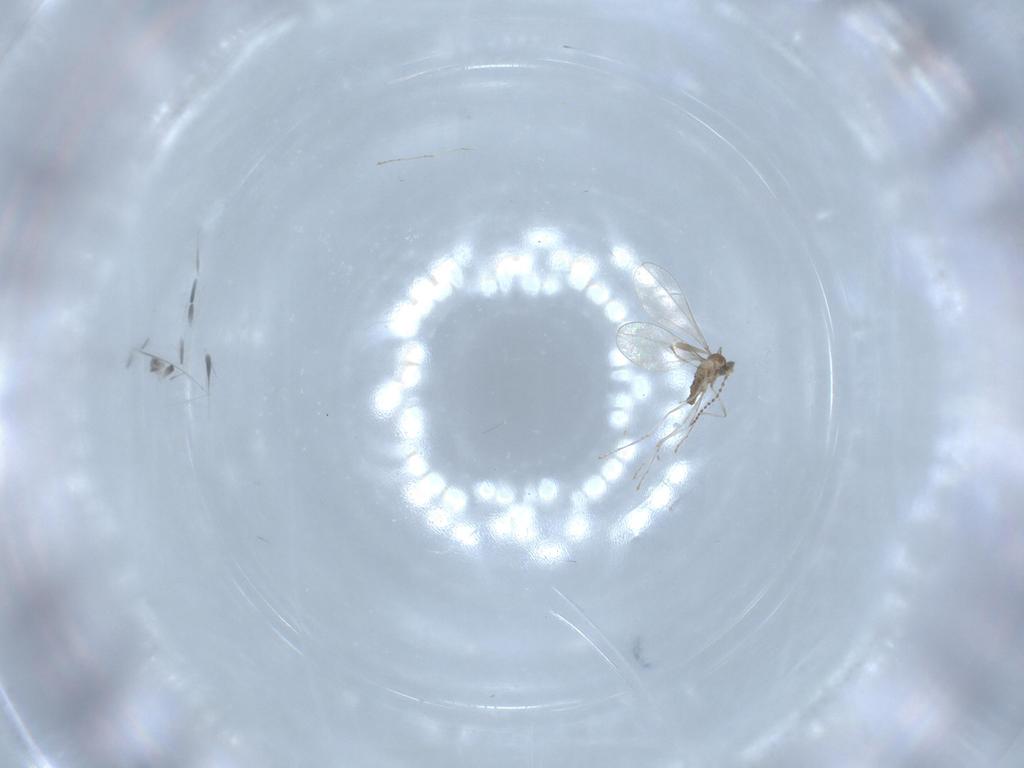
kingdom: Animalia
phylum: Arthropoda
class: Insecta
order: Diptera
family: Cecidomyiidae
